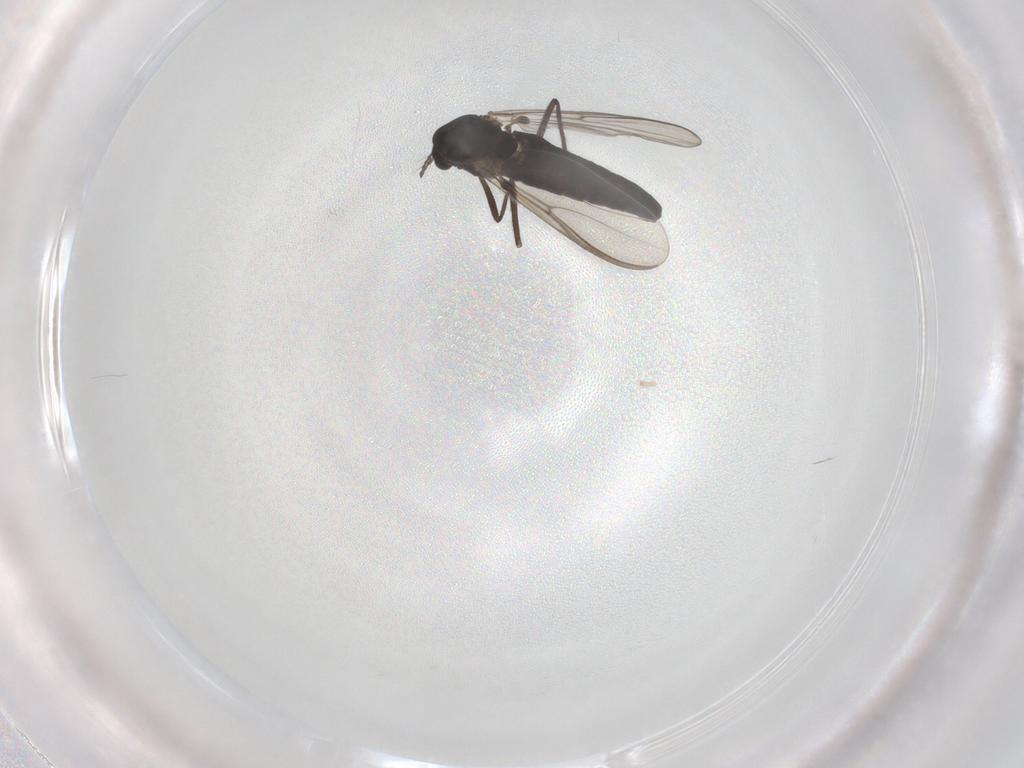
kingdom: Animalia
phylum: Arthropoda
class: Insecta
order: Diptera
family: Chironomidae
